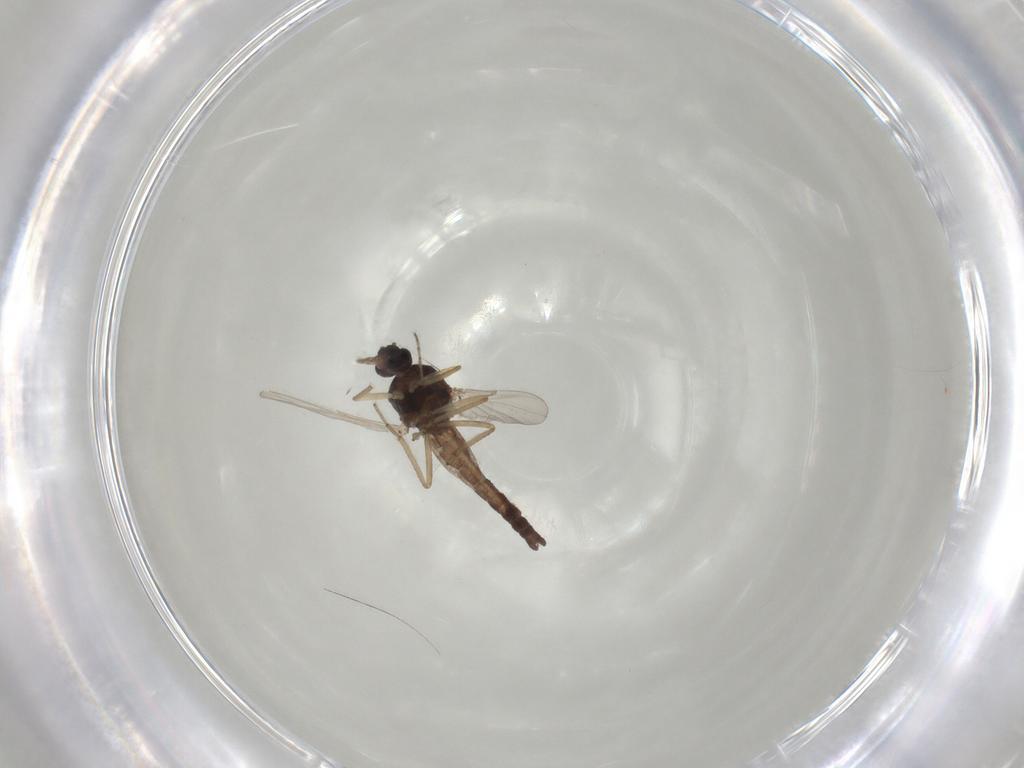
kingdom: Animalia
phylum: Arthropoda
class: Insecta
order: Diptera
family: Ceratopogonidae
